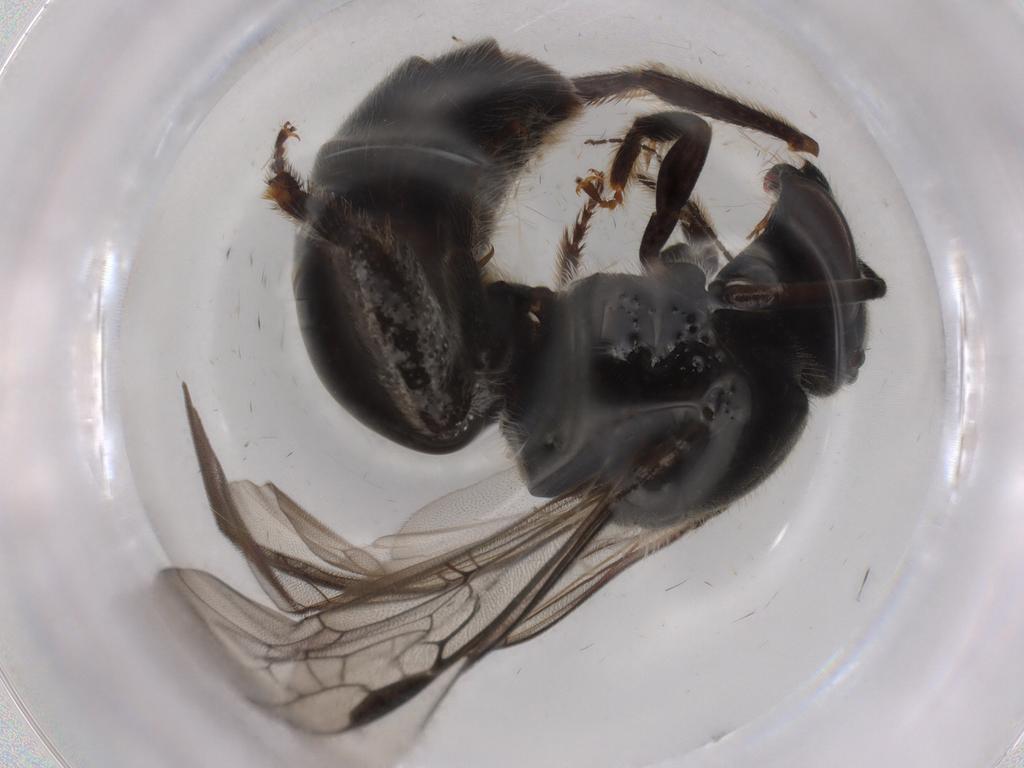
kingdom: Animalia
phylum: Arthropoda
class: Insecta
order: Hymenoptera
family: Halictidae
